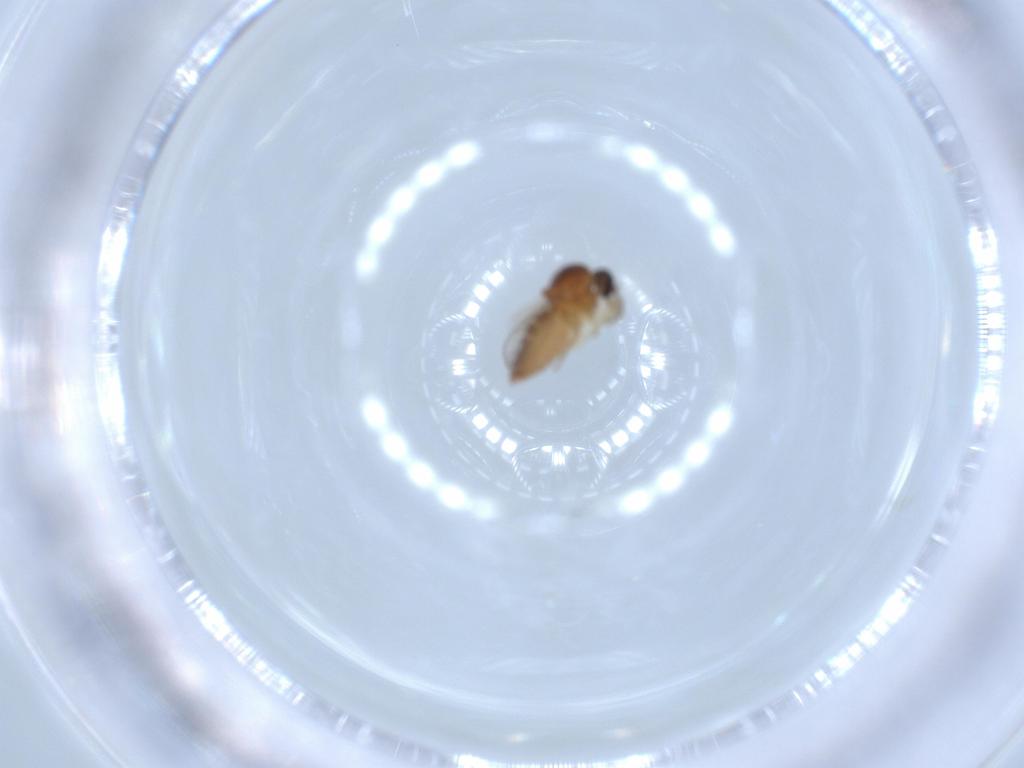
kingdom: Animalia
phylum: Arthropoda
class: Insecta
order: Diptera
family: Ceratopogonidae
